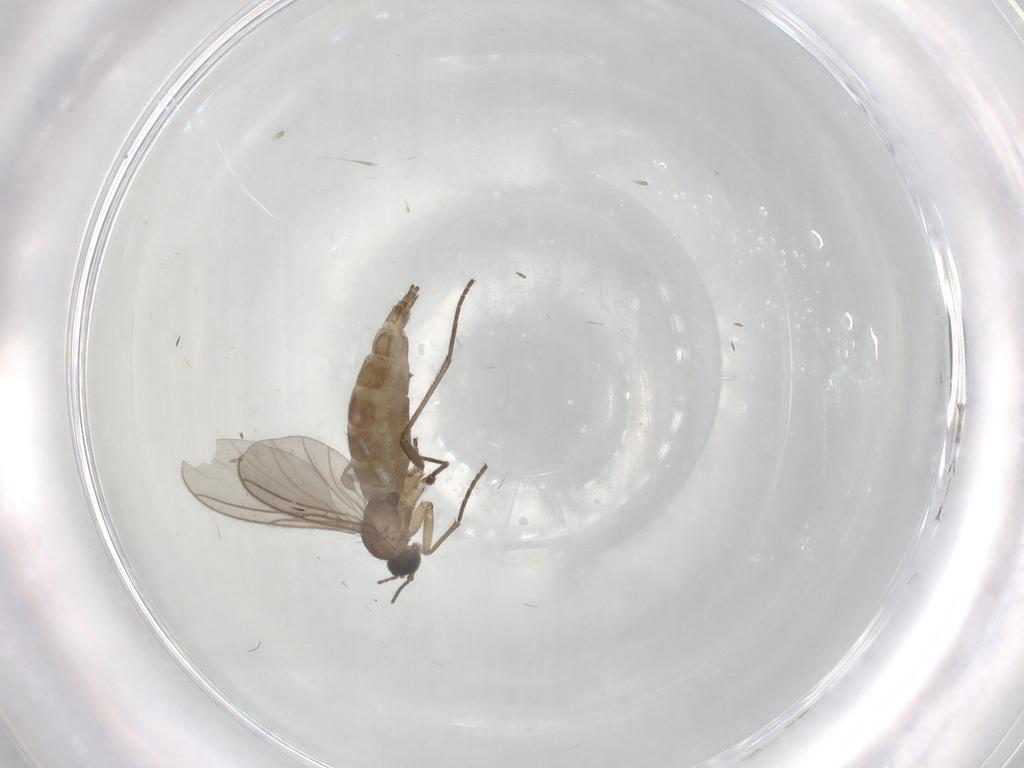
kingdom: Animalia
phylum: Arthropoda
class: Insecta
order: Diptera
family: Cecidomyiidae
